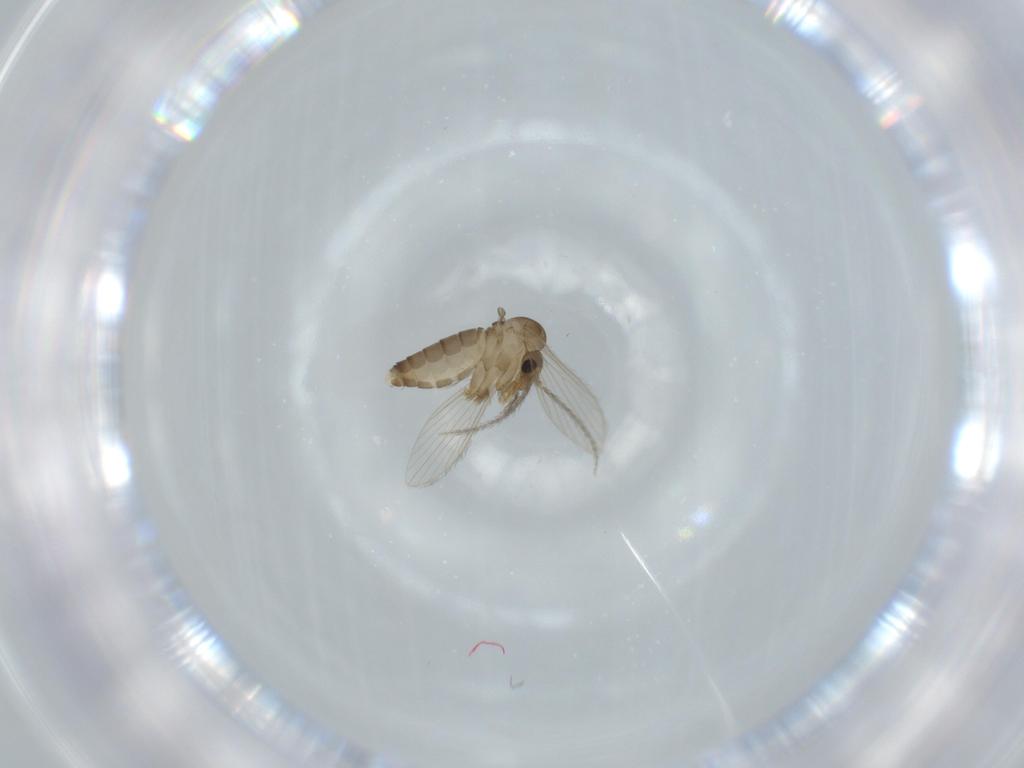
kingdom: Animalia
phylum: Arthropoda
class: Insecta
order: Diptera
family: Psychodidae
